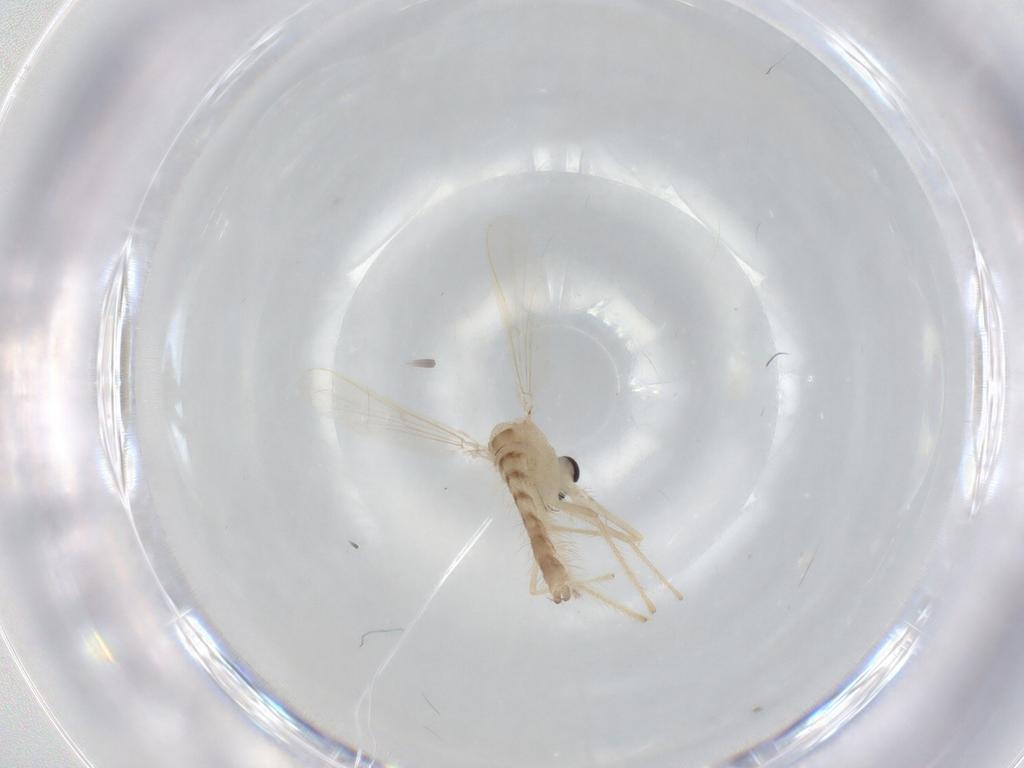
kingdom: Animalia
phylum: Arthropoda
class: Insecta
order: Diptera
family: Chironomidae
